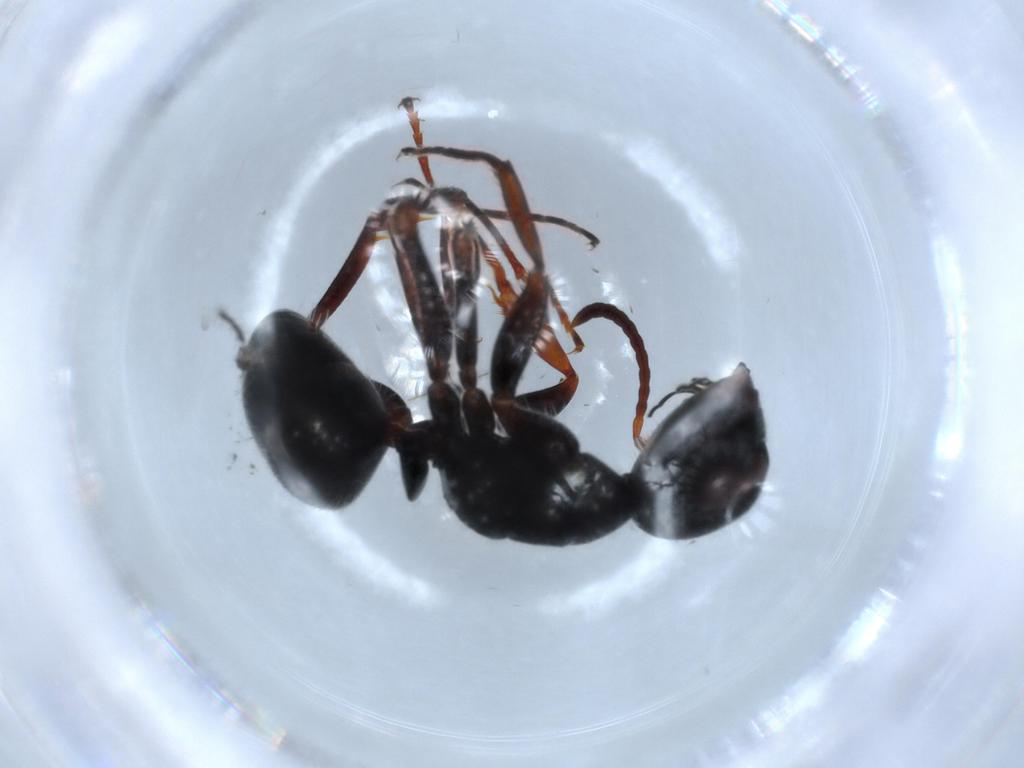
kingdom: Animalia
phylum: Arthropoda
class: Insecta
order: Hymenoptera
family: Formicidae
